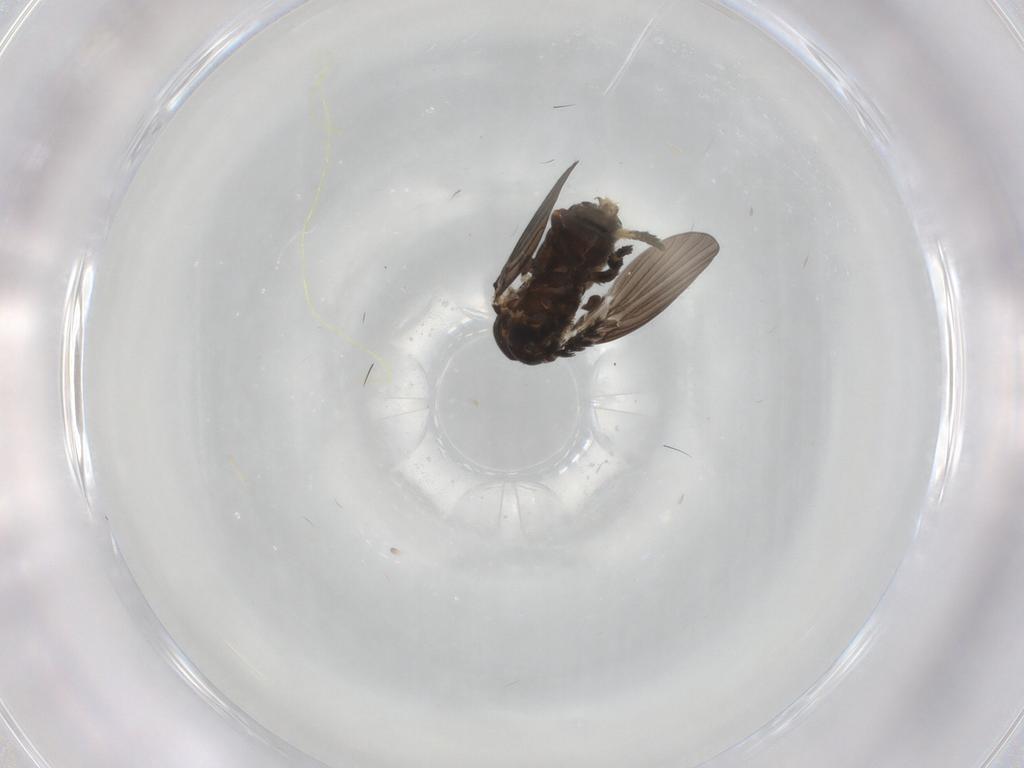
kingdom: Animalia
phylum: Arthropoda
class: Insecta
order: Diptera
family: Psychodidae
